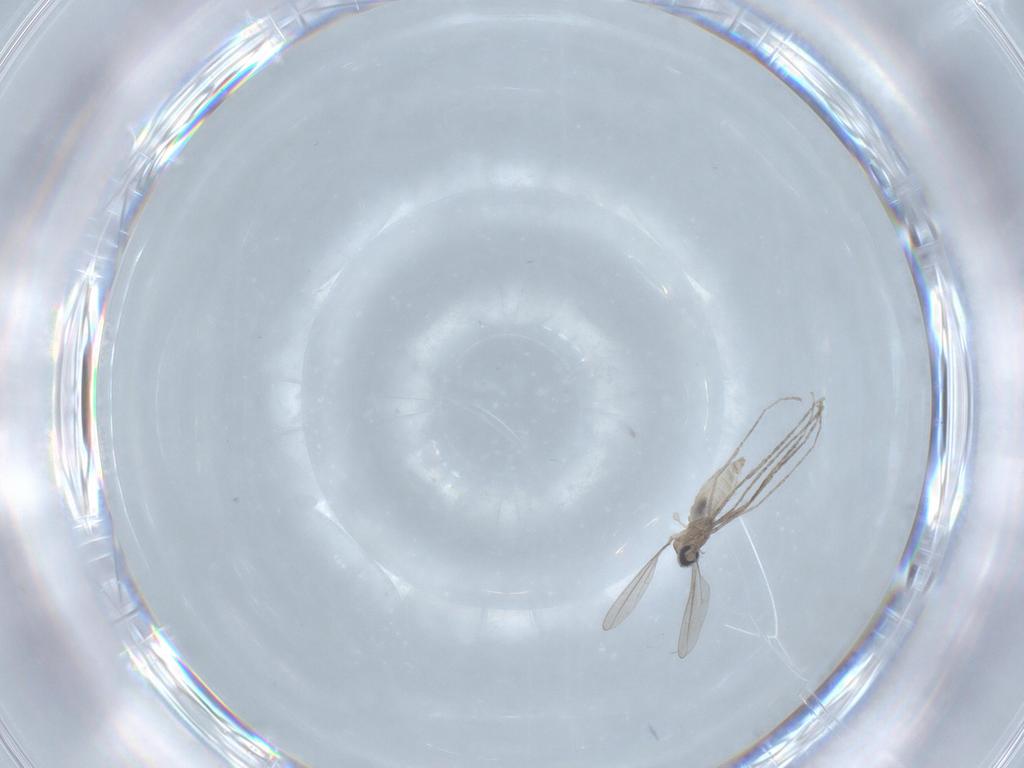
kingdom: Animalia
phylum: Arthropoda
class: Insecta
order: Diptera
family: Cecidomyiidae
